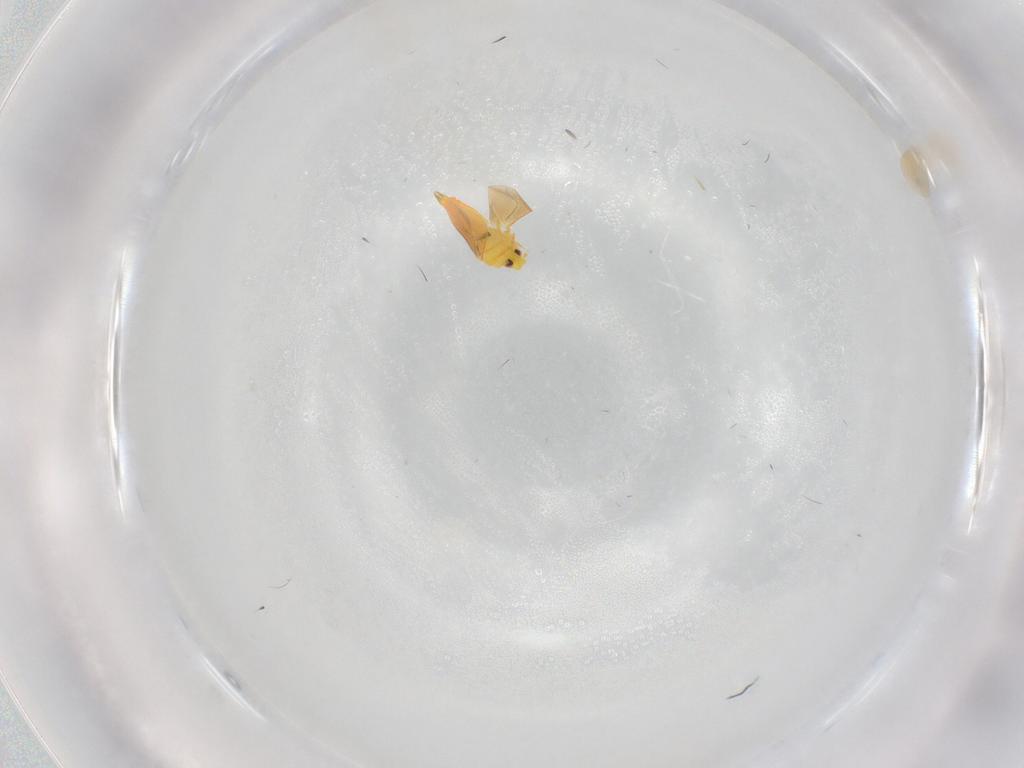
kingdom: Animalia
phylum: Arthropoda
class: Insecta
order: Hemiptera
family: Aleyrodidae
